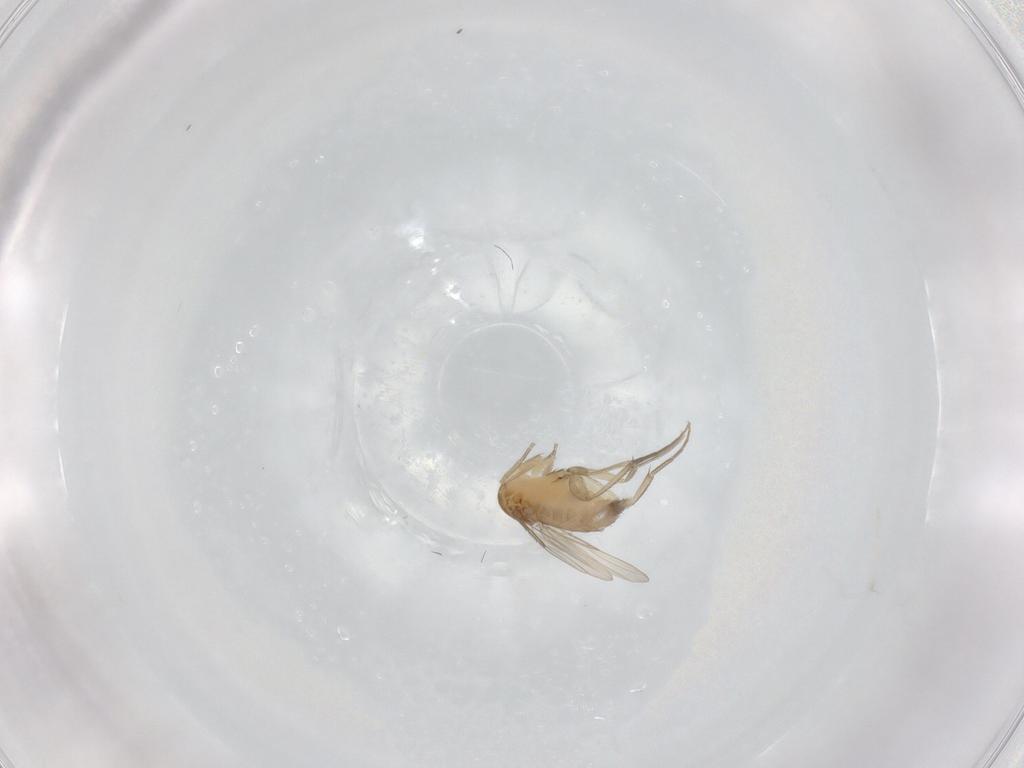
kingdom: Animalia
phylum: Arthropoda
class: Insecta
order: Diptera
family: Phoridae
